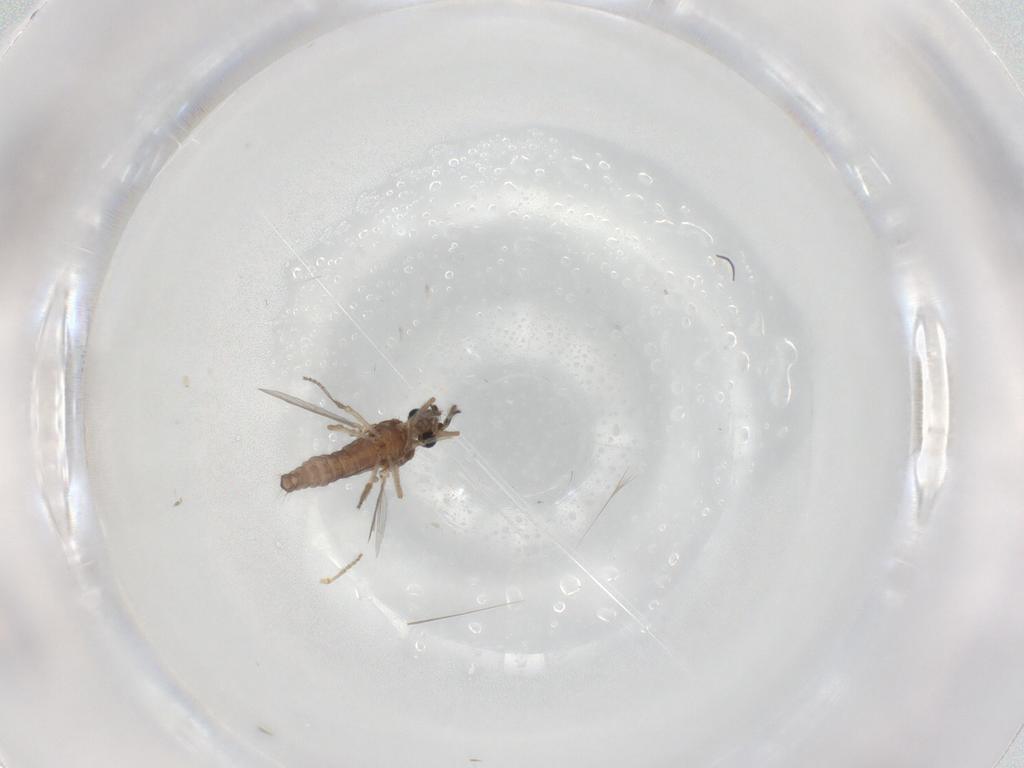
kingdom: Animalia
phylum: Arthropoda
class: Insecta
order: Diptera
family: Ceratopogonidae
